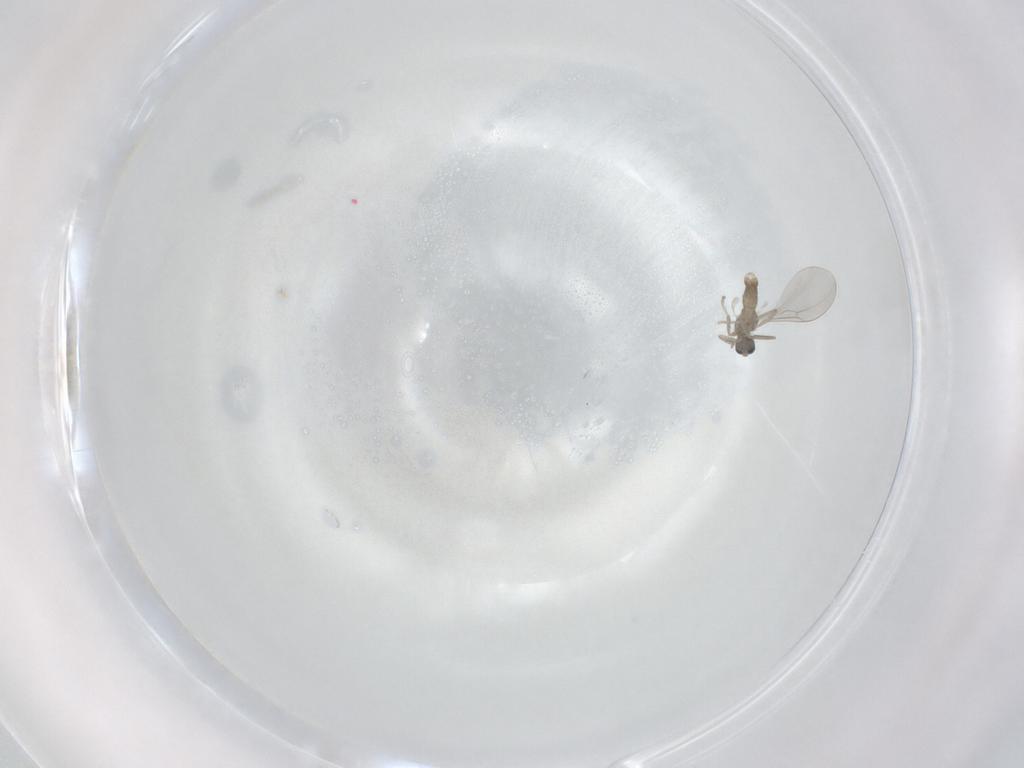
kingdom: Animalia
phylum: Arthropoda
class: Insecta
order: Diptera
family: Cecidomyiidae
